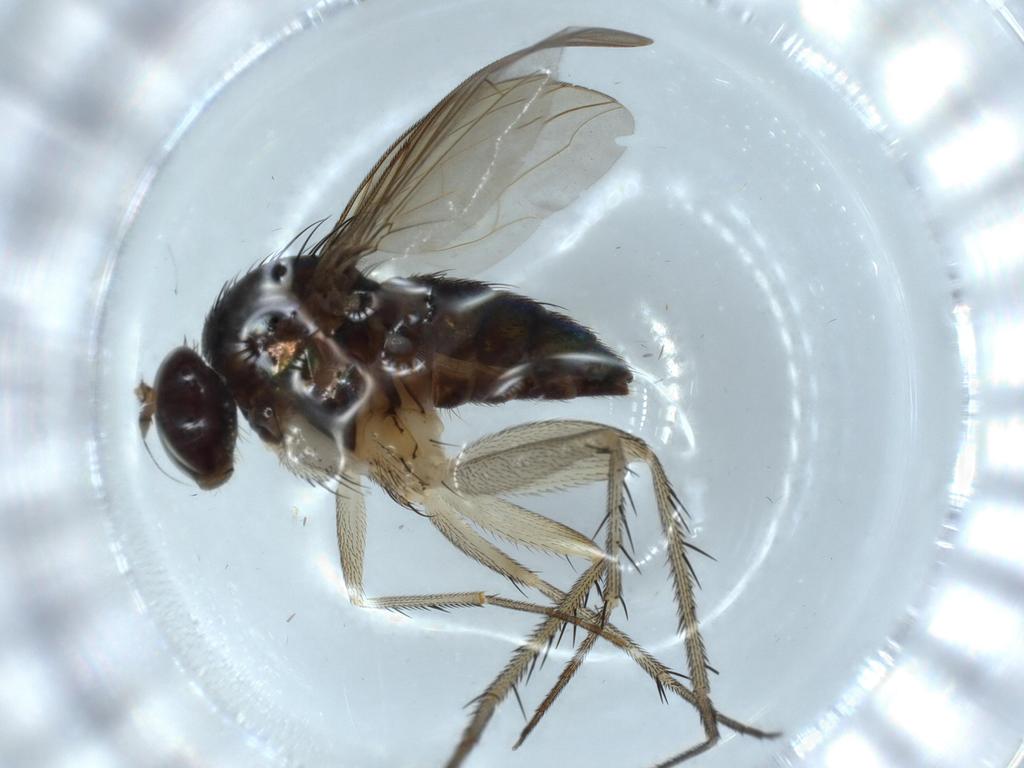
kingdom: Animalia
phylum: Arthropoda
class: Insecta
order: Diptera
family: Dolichopodidae
